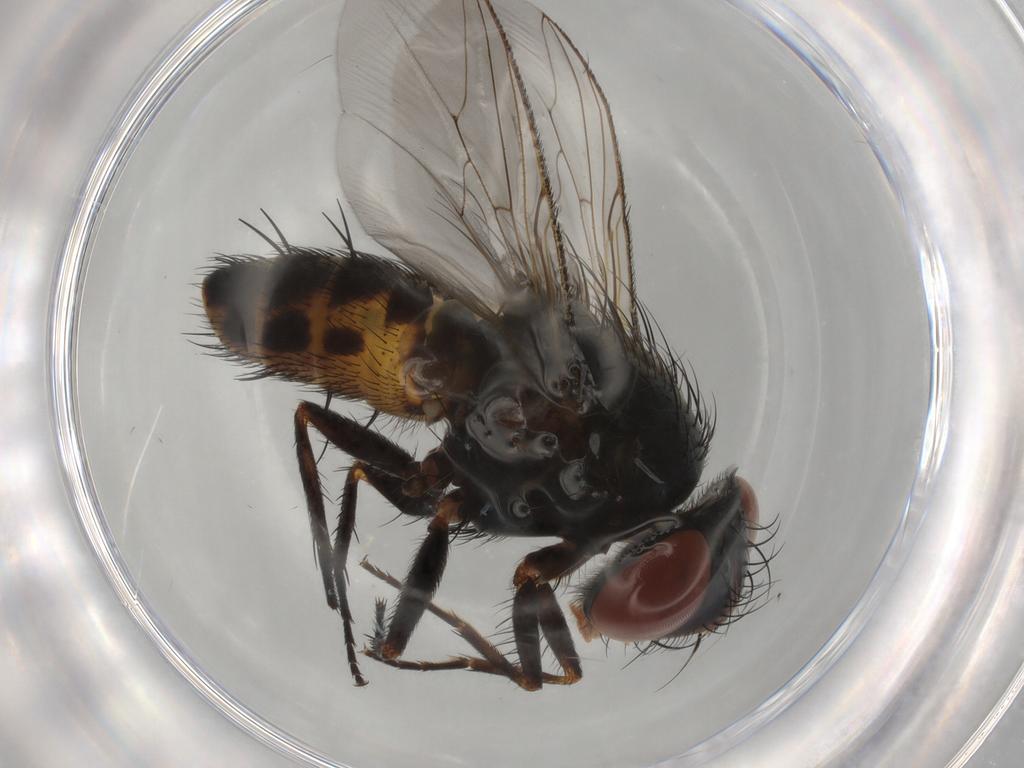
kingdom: Animalia
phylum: Arthropoda
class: Insecta
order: Diptera
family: Sarcophagidae
